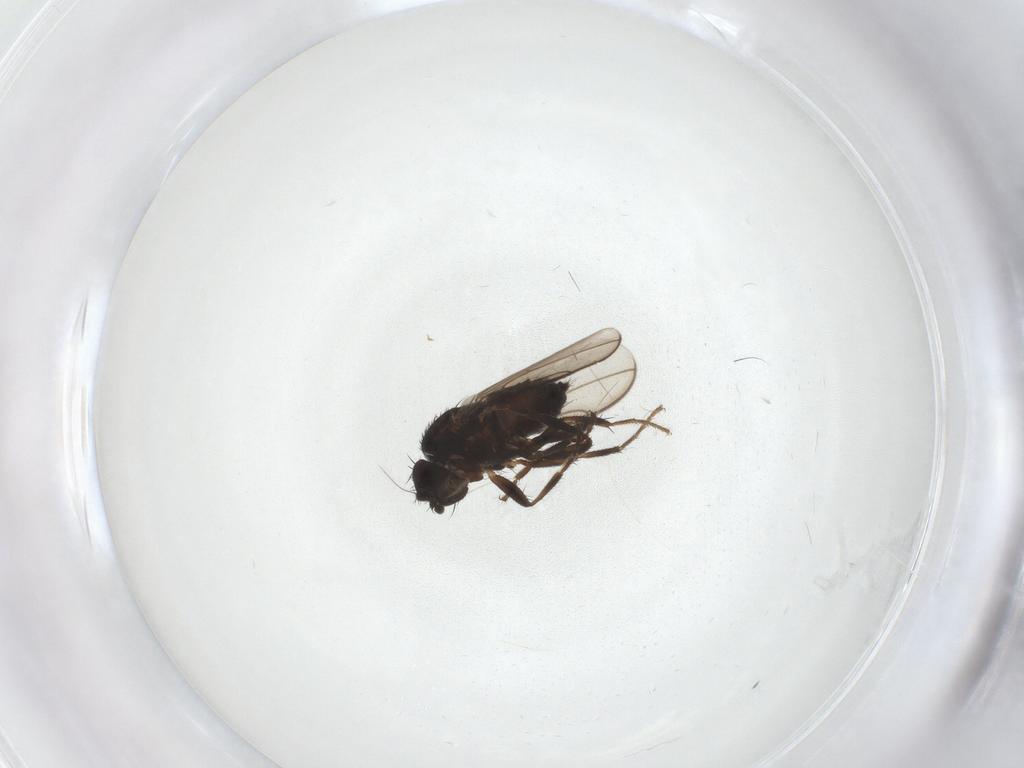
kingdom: Animalia
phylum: Arthropoda
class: Insecta
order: Diptera
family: Sphaeroceridae
